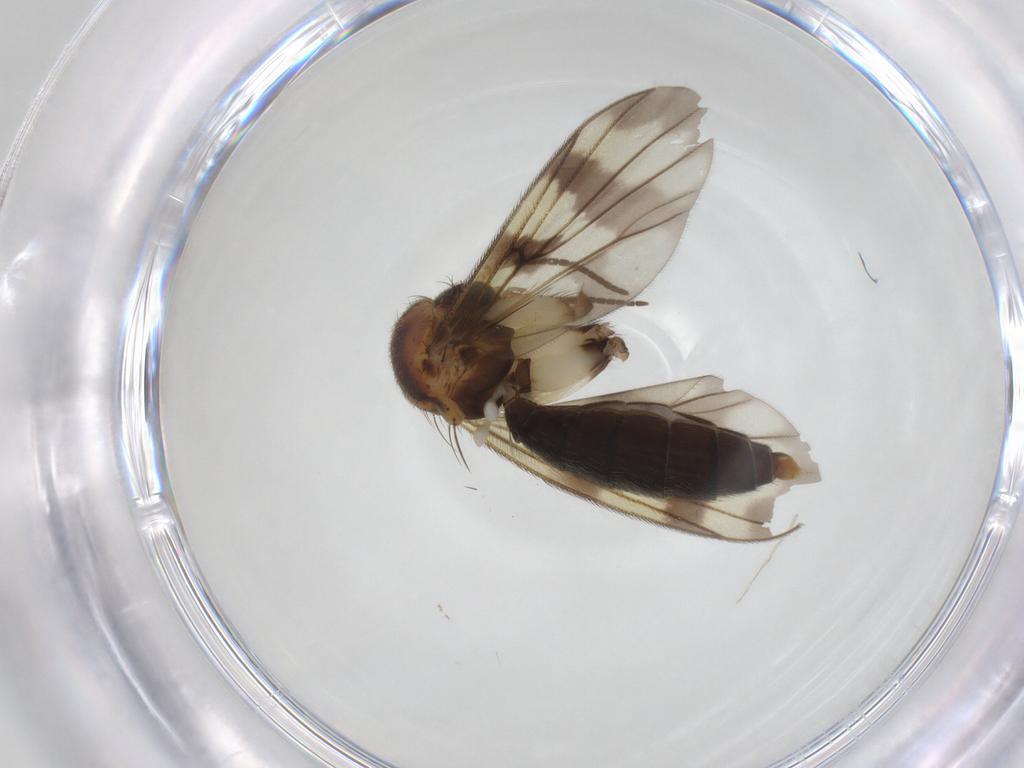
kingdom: Animalia
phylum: Arthropoda
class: Insecta
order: Diptera
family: Mycetophilidae
